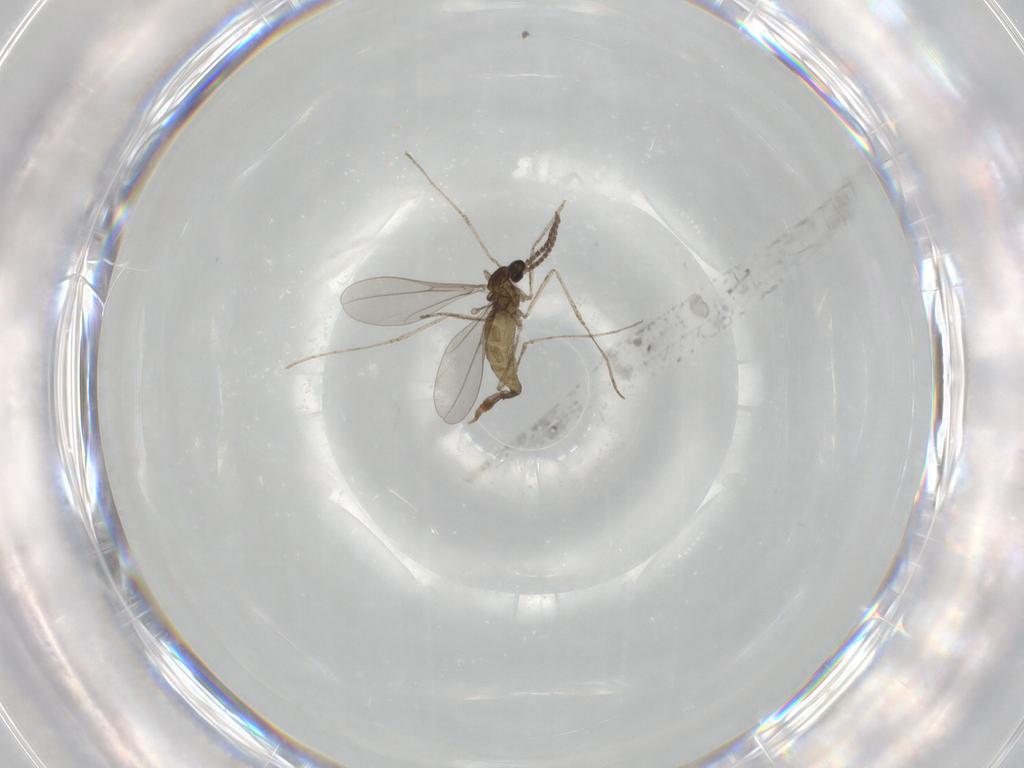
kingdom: Animalia
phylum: Arthropoda
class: Insecta
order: Diptera
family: Cecidomyiidae
